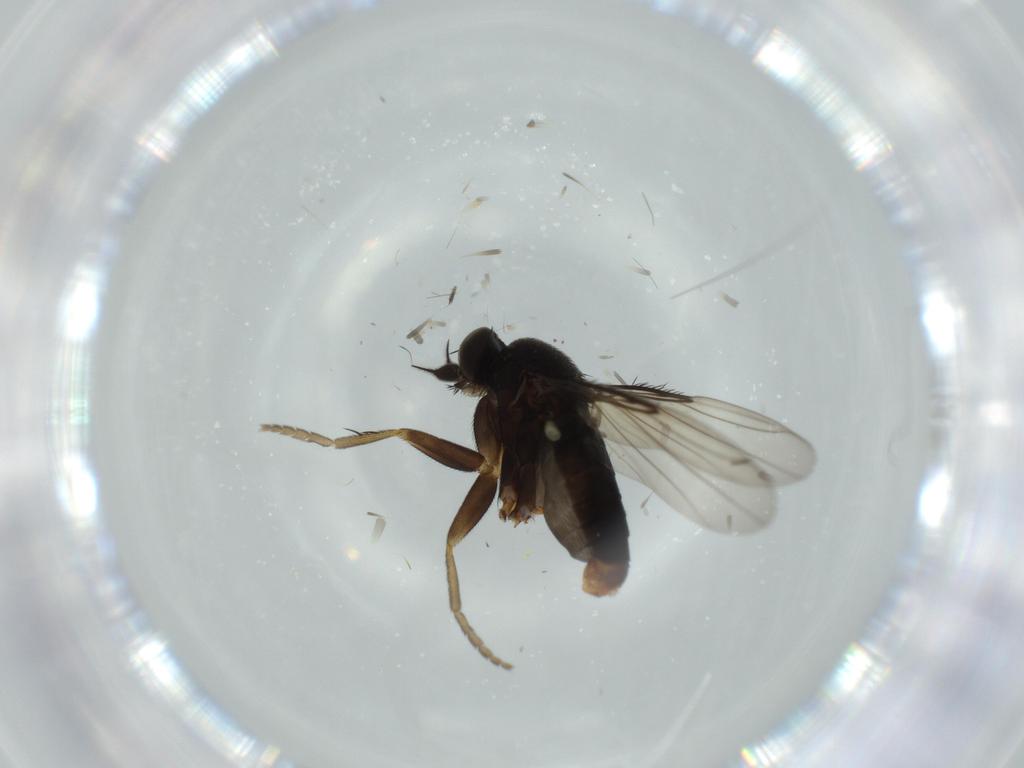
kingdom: Animalia
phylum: Arthropoda
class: Insecta
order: Diptera
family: Phoridae
